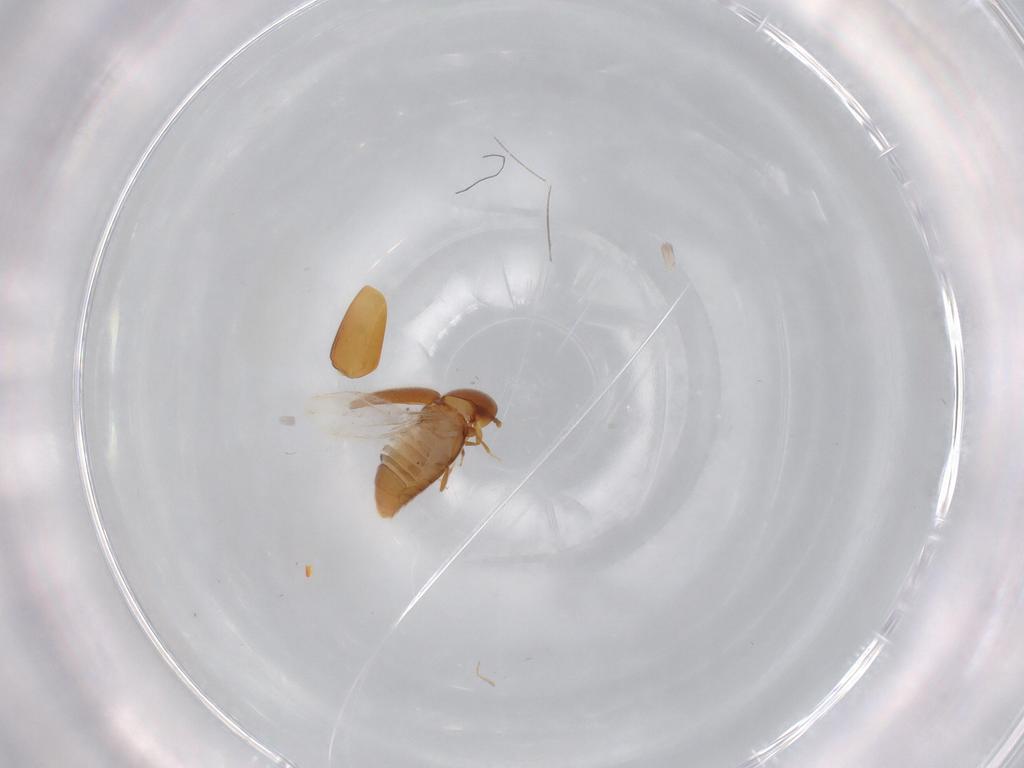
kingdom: Animalia
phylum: Arthropoda
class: Insecta
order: Coleoptera
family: Corylophidae
